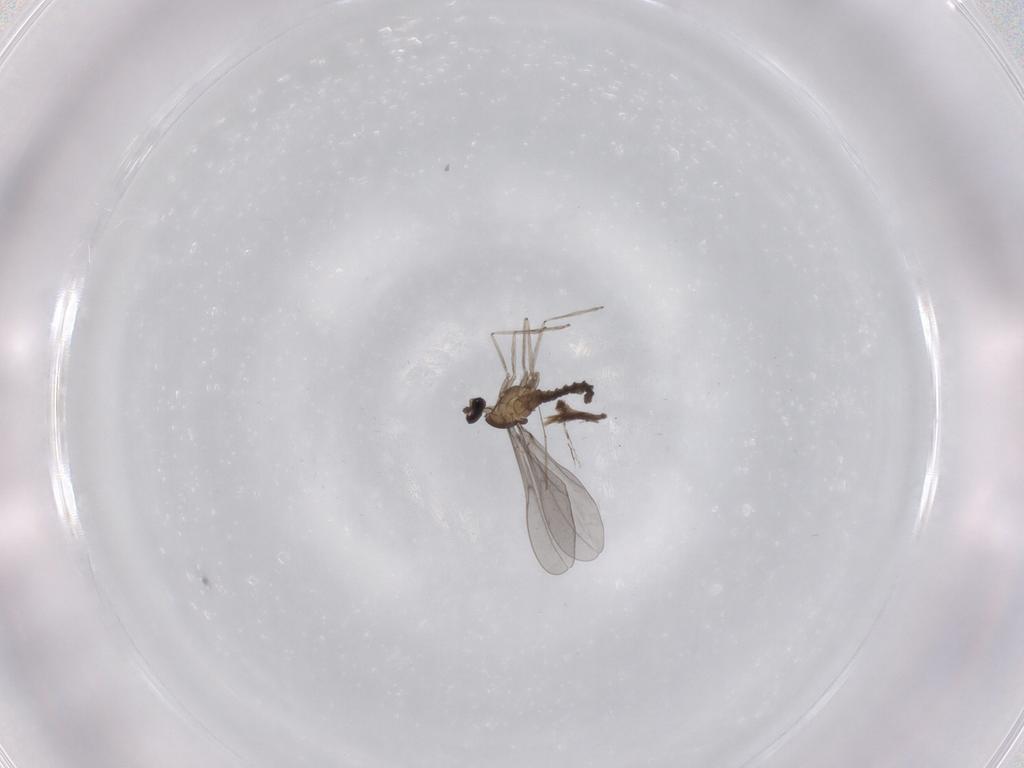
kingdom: Animalia
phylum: Arthropoda
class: Insecta
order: Diptera
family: Cecidomyiidae
